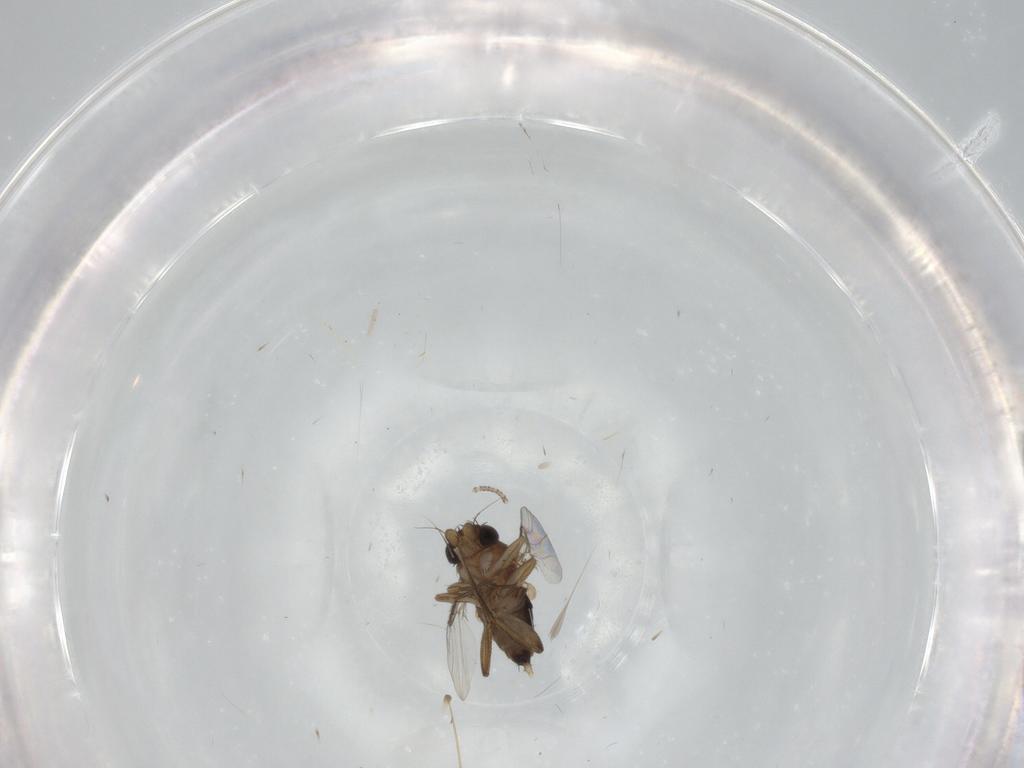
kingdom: Animalia
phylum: Arthropoda
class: Insecta
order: Diptera
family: Phoridae
